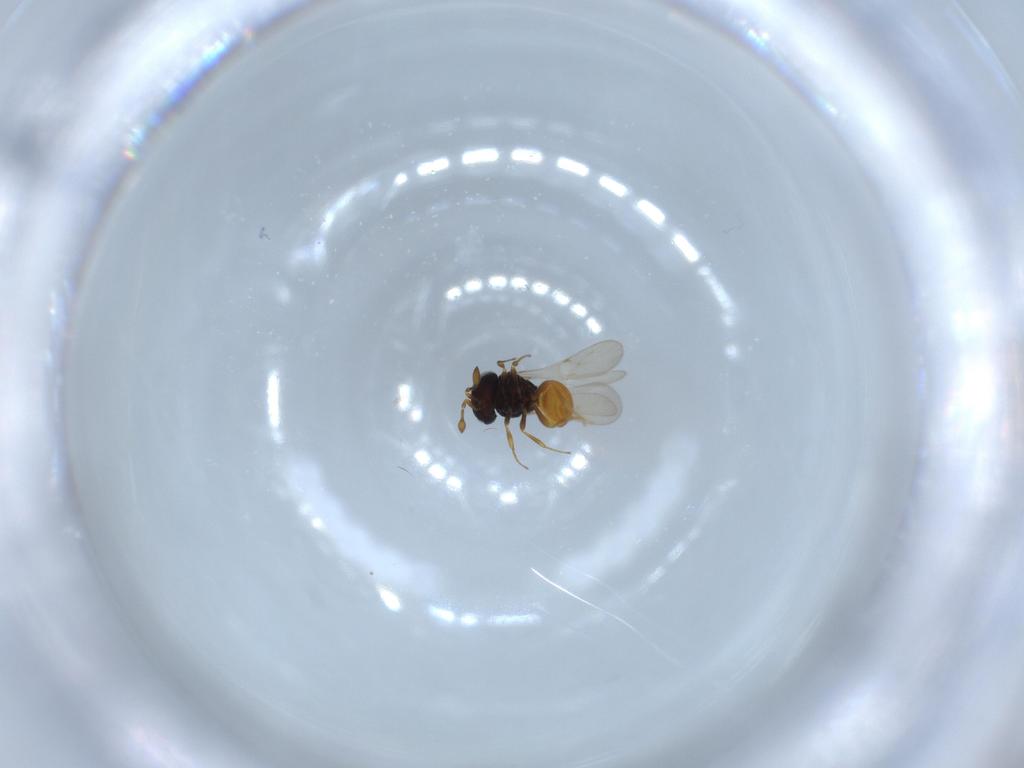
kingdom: Animalia
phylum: Arthropoda
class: Insecta
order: Hymenoptera
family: Scelionidae
